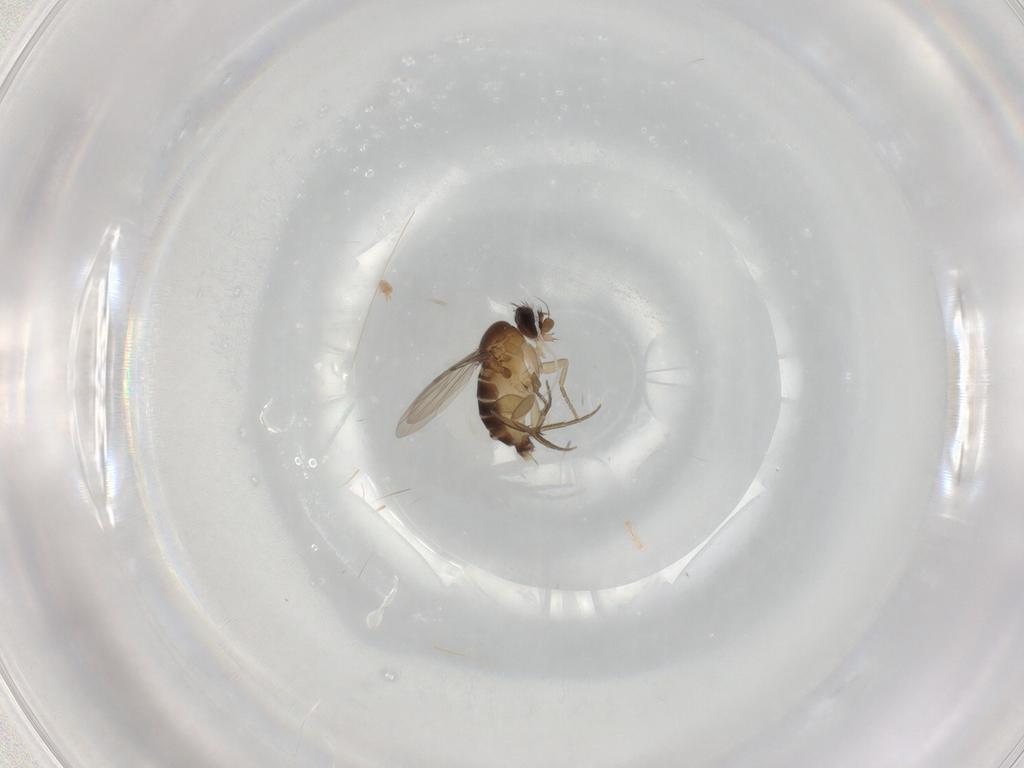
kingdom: Animalia
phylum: Arthropoda
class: Insecta
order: Diptera
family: Phoridae
